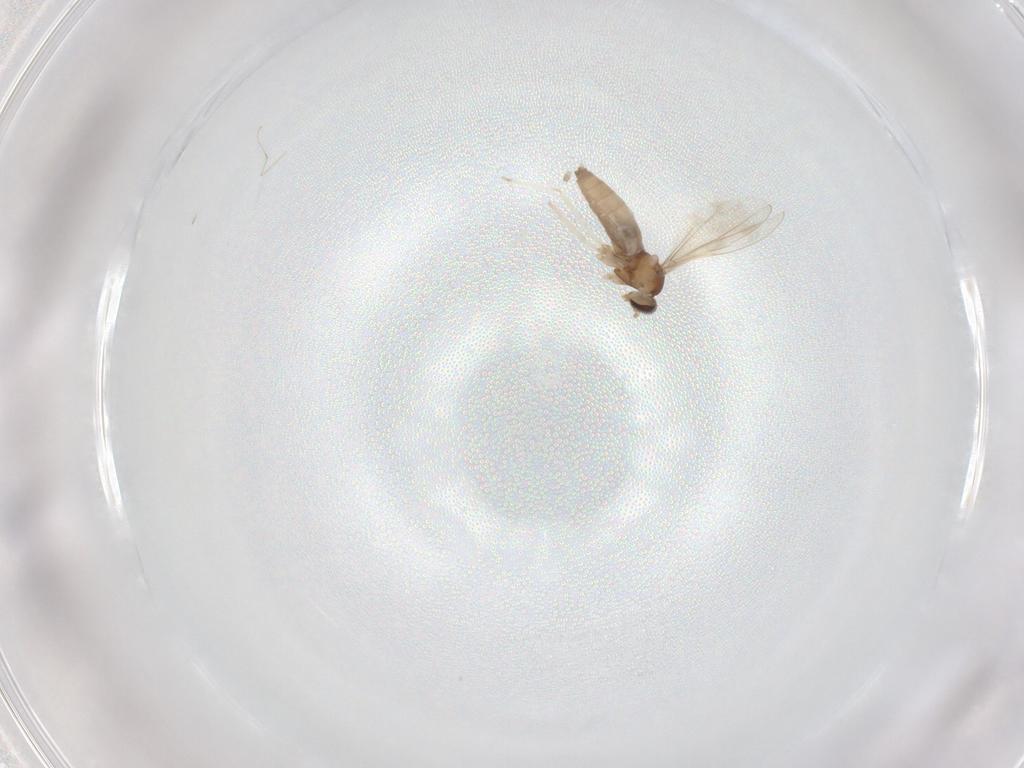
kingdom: Animalia
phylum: Arthropoda
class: Insecta
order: Diptera
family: Cecidomyiidae
